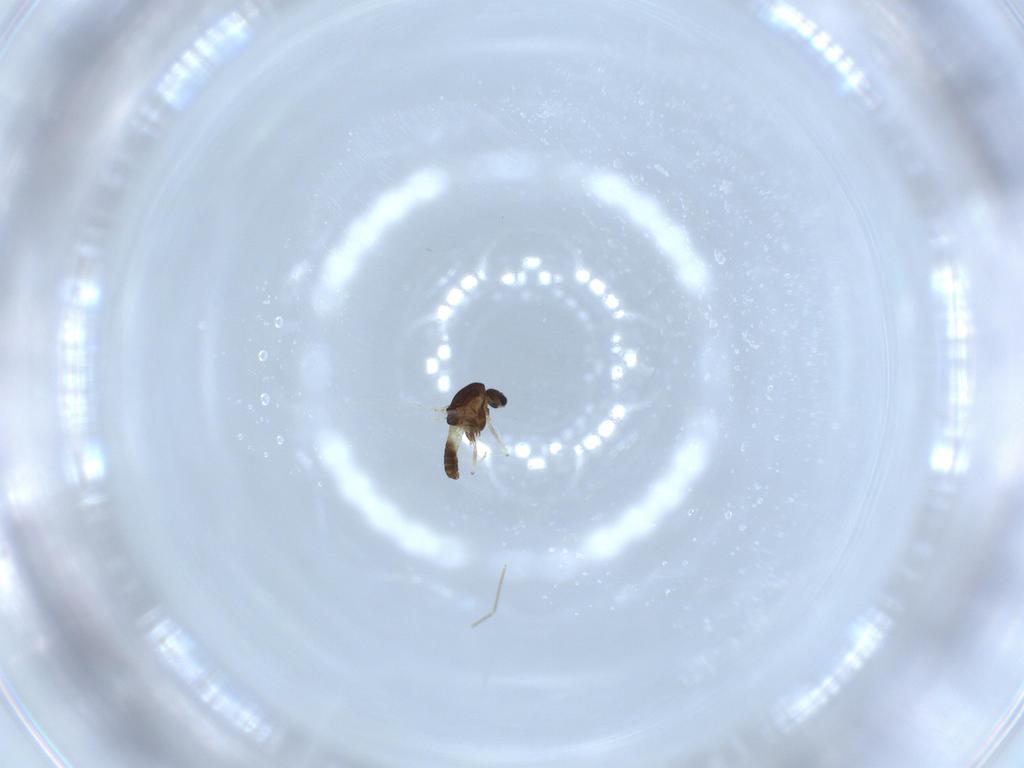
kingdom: Animalia
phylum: Arthropoda
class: Insecta
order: Diptera
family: Chironomidae
